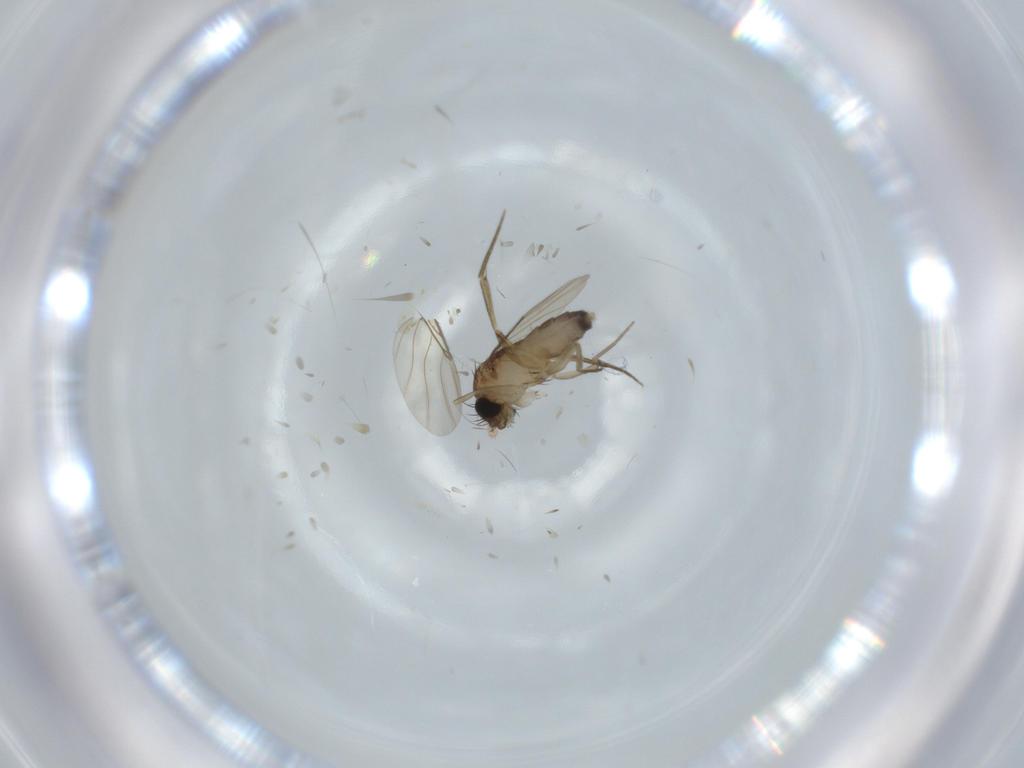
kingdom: Animalia
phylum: Arthropoda
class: Insecta
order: Diptera
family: Phoridae
